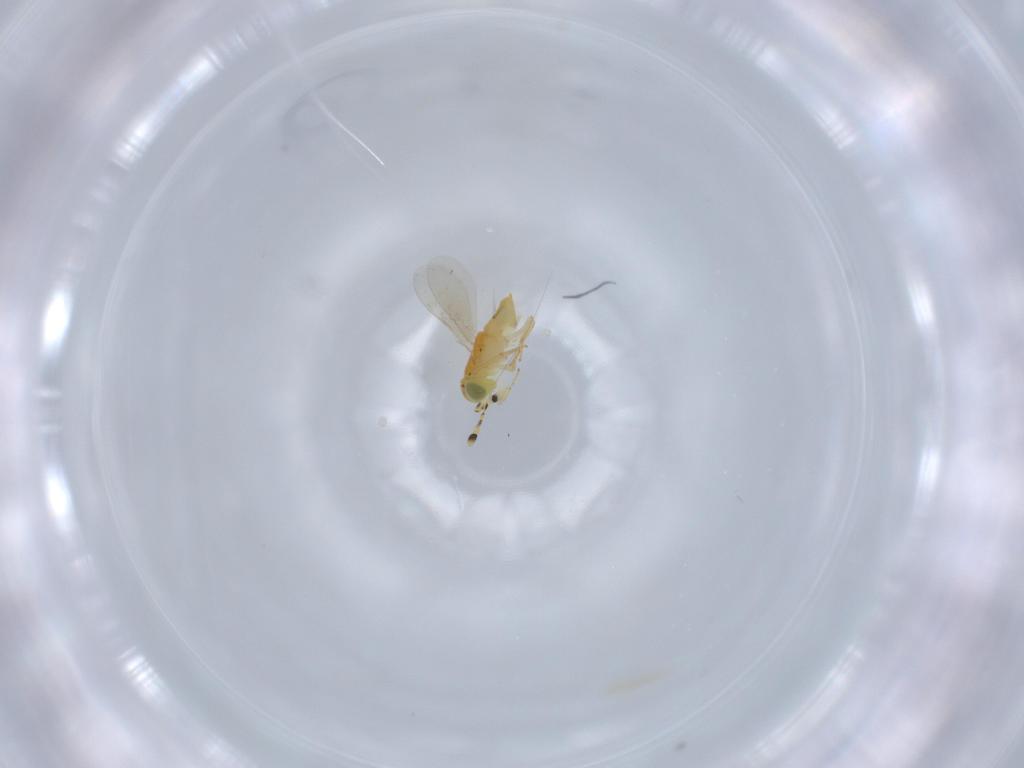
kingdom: Animalia
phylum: Arthropoda
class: Insecta
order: Hymenoptera
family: Encyrtidae
